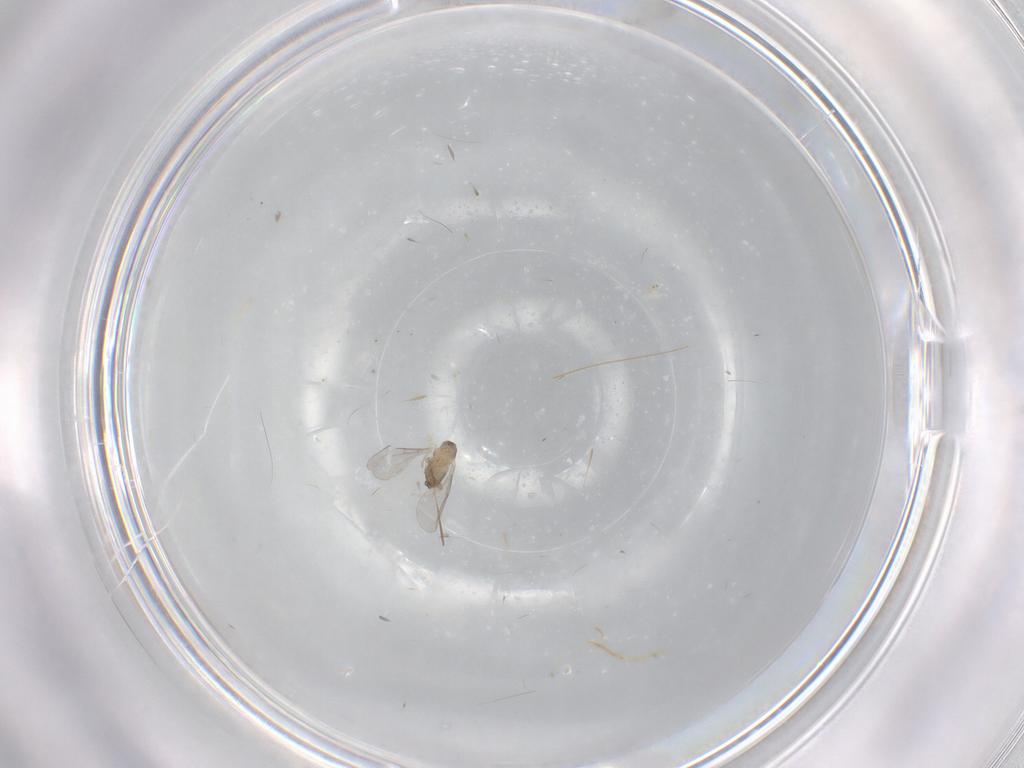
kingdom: Animalia
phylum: Arthropoda
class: Insecta
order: Diptera
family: Cecidomyiidae
